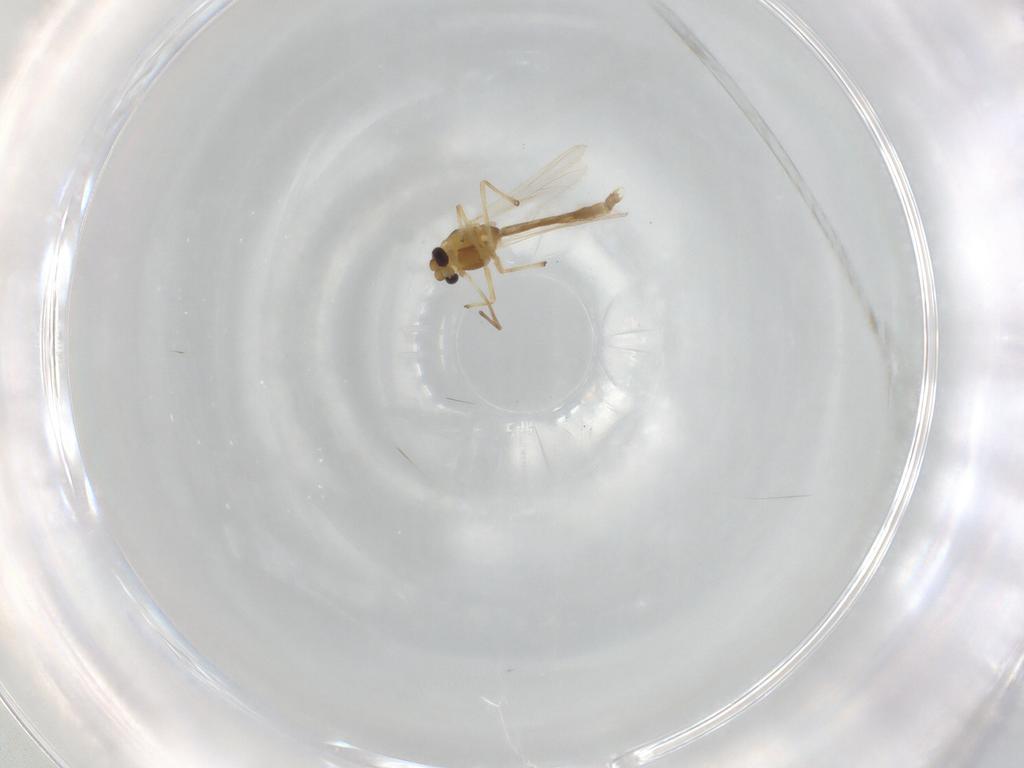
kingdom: Animalia
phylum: Arthropoda
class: Insecta
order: Diptera
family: Chironomidae
